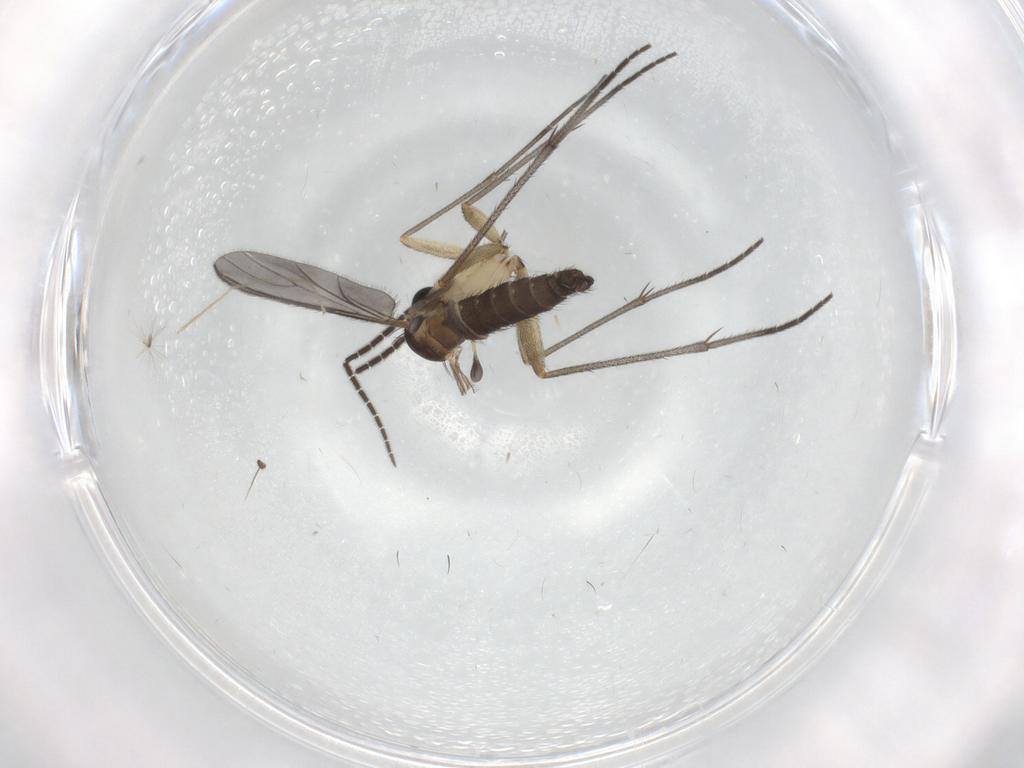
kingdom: Animalia
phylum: Arthropoda
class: Insecta
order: Diptera
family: Sciaridae
